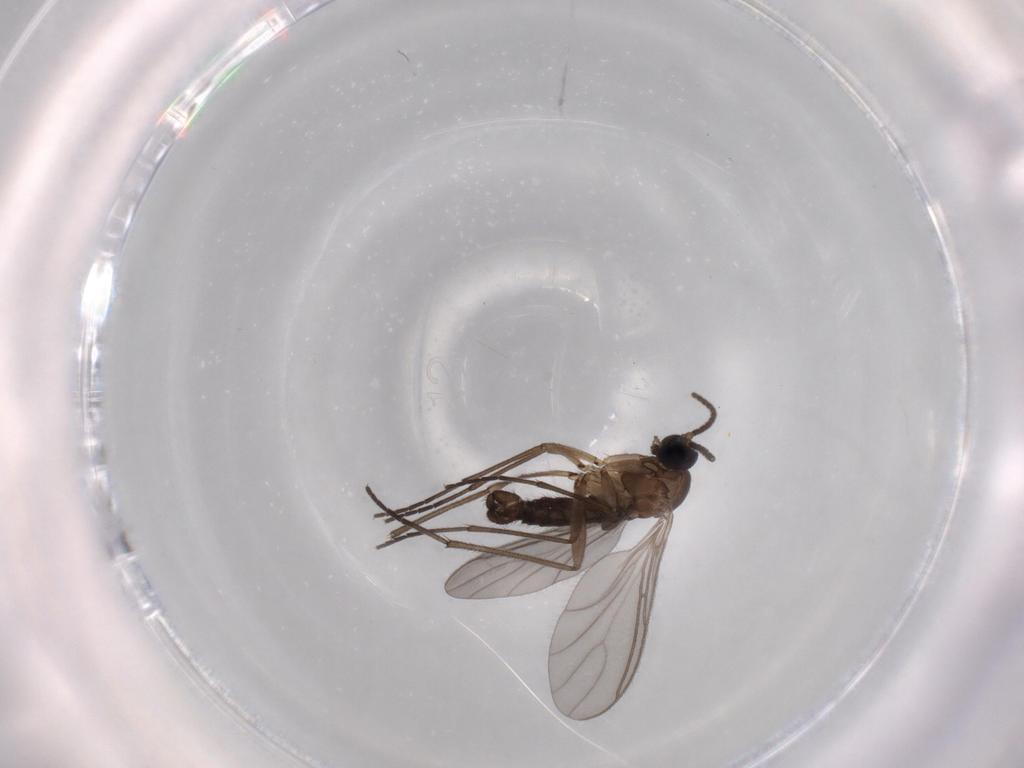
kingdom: Animalia
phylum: Arthropoda
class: Insecta
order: Diptera
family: Sciaridae
